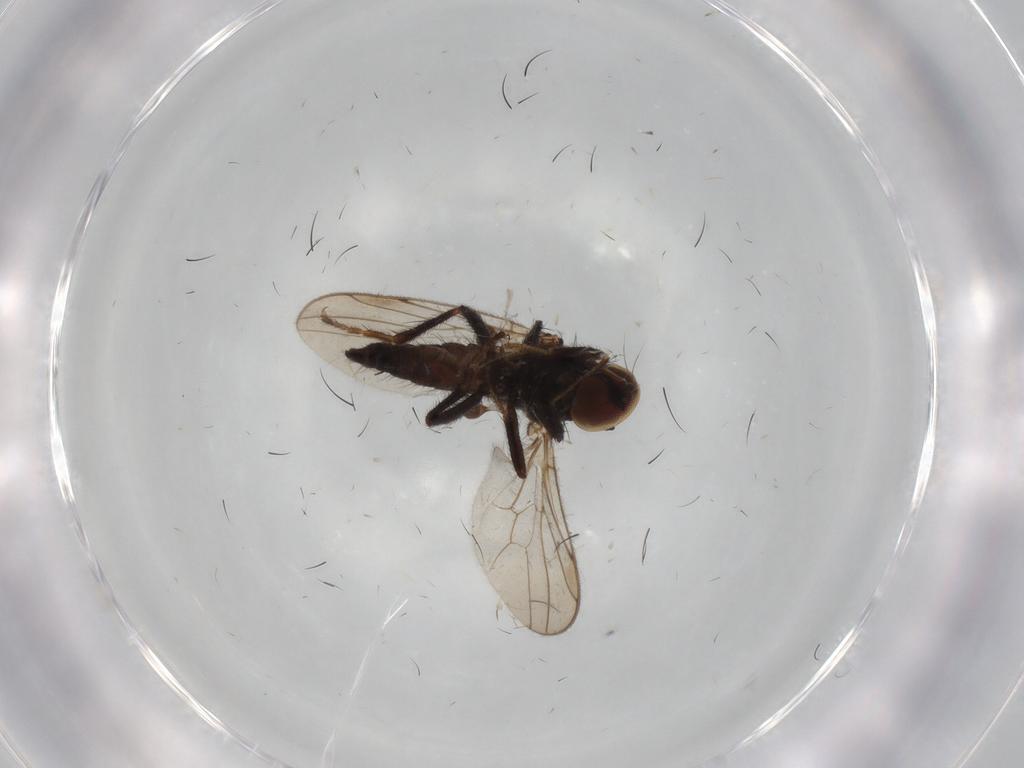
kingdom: Animalia
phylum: Arthropoda
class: Insecta
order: Diptera
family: Hybotidae
